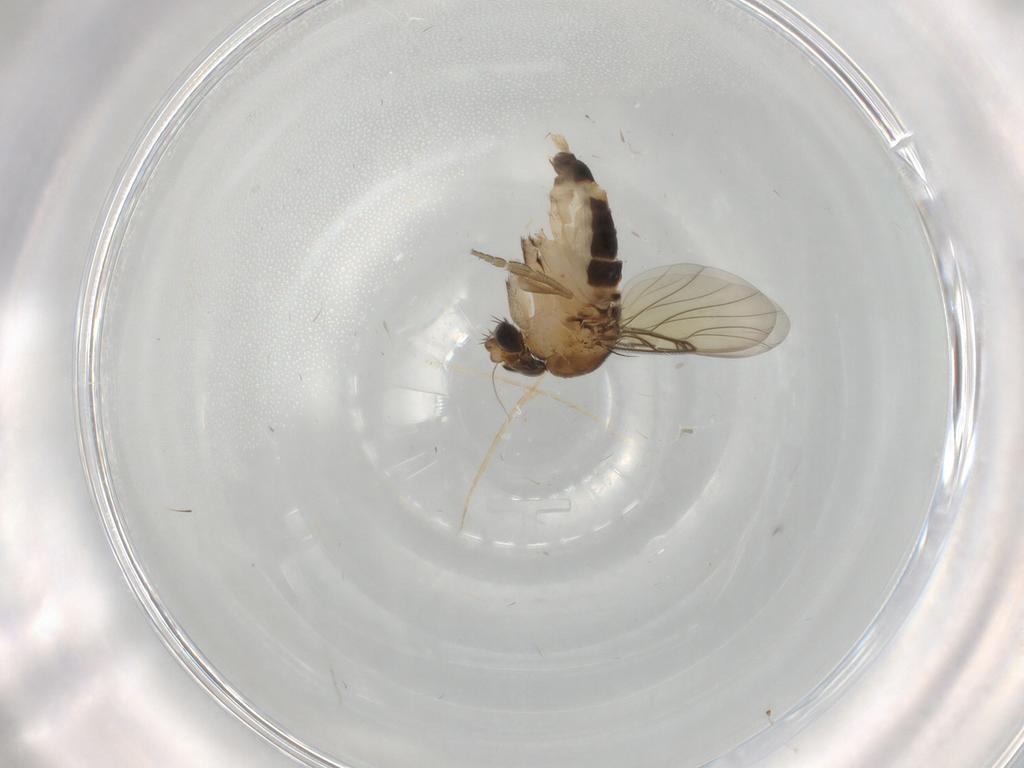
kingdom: Animalia
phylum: Arthropoda
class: Insecta
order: Diptera
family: Phoridae
